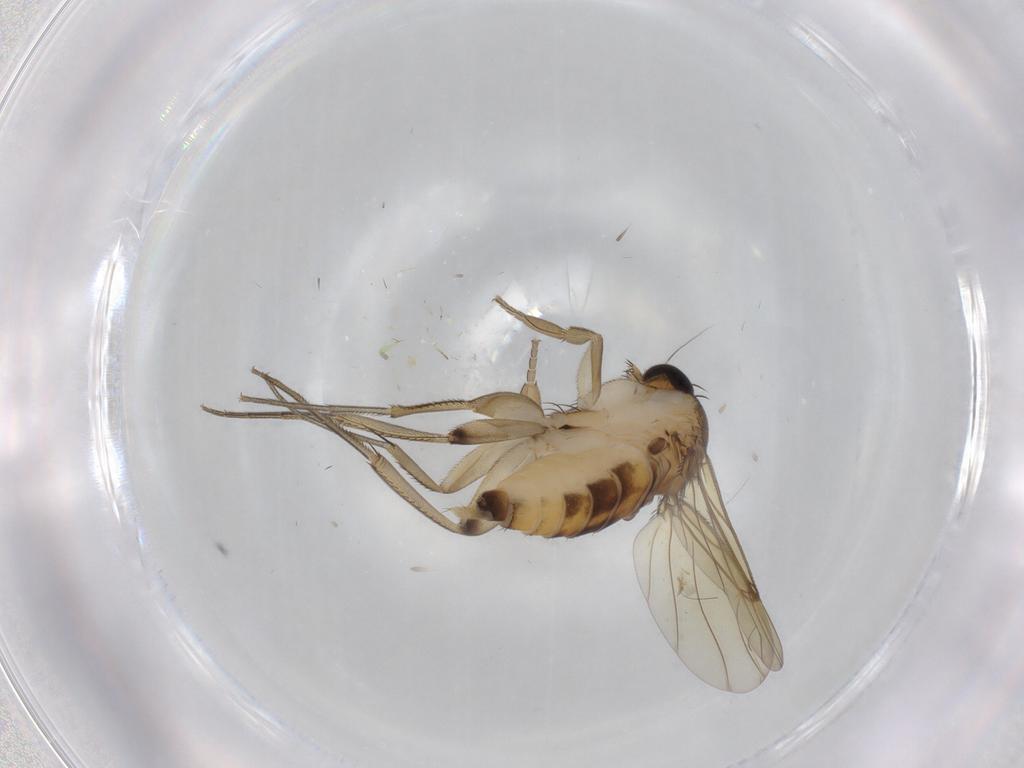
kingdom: Animalia
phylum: Arthropoda
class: Insecta
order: Diptera
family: Phoridae
